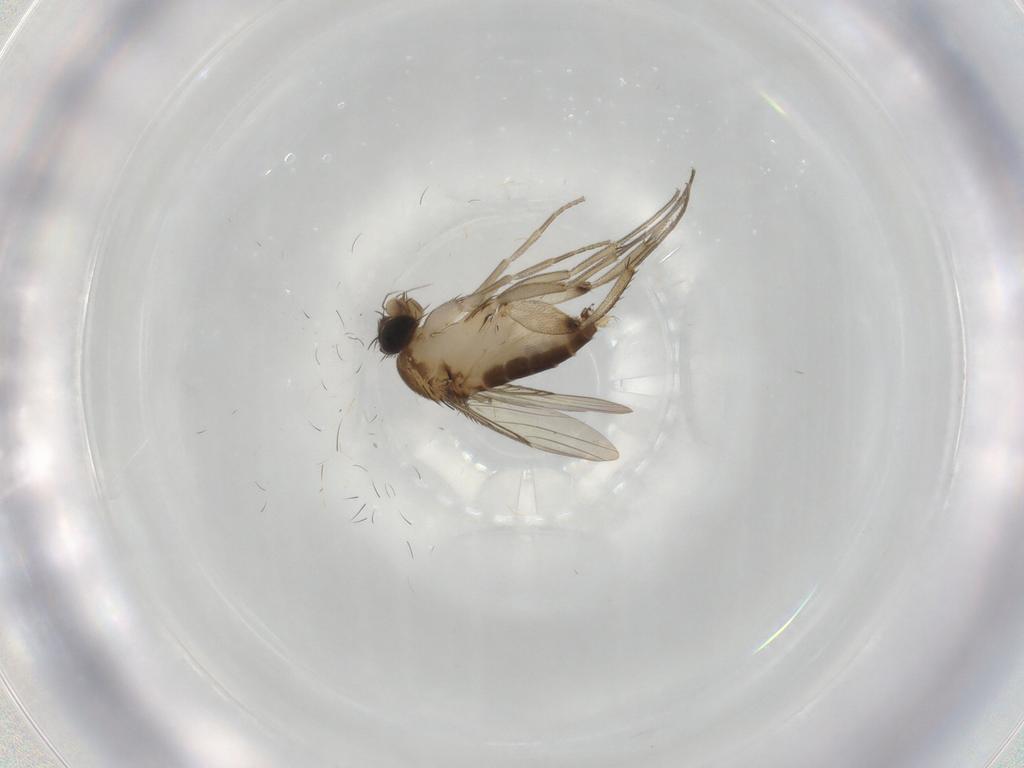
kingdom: Animalia
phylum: Arthropoda
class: Insecta
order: Diptera
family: Phoridae
